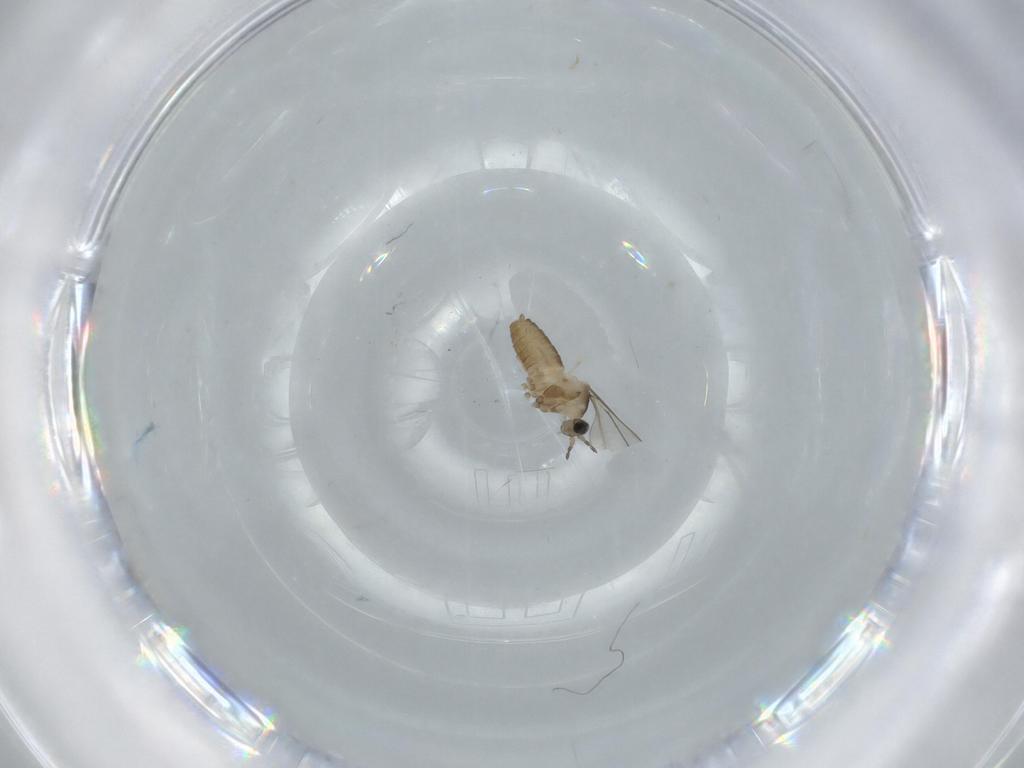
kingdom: Animalia
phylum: Arthropoda
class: Insecta
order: Diptera
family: Cecidomyiidae
